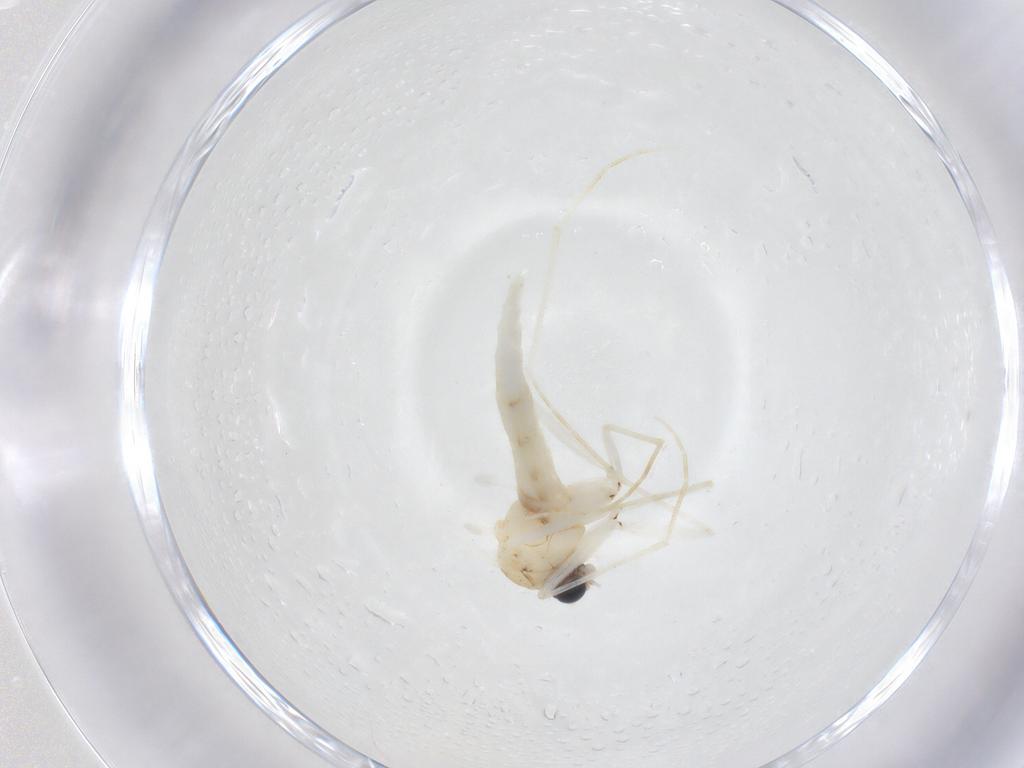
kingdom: Animalia
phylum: Arthropoda
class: Insecta
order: Diptera
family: Sciaridae
